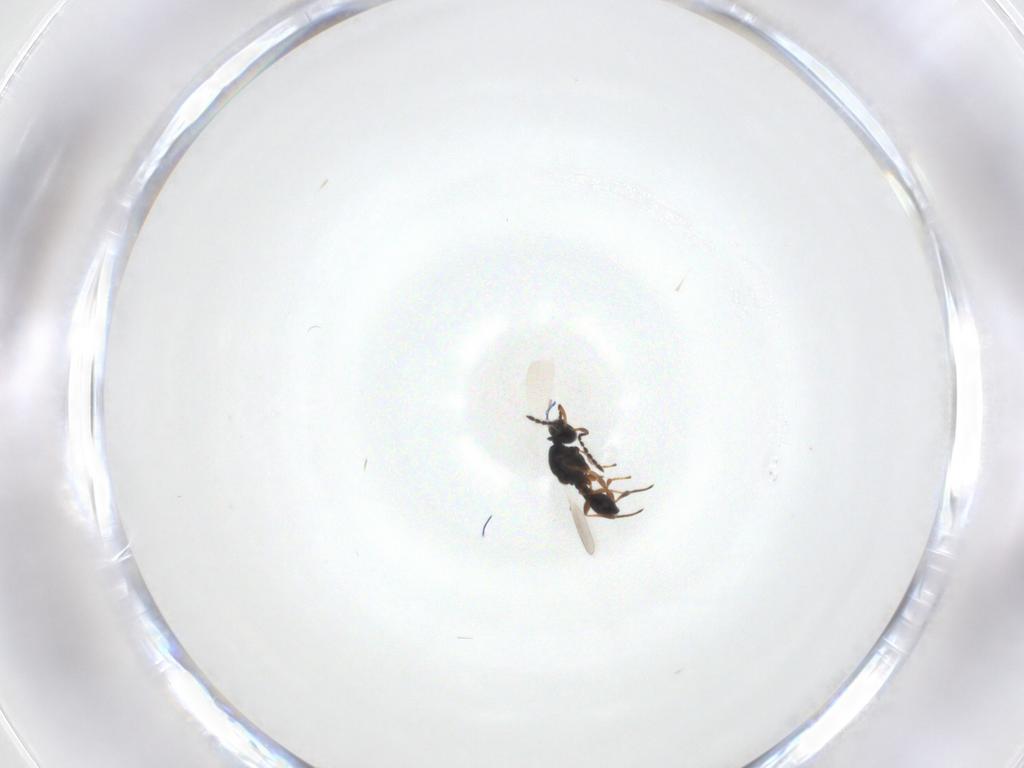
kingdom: Animalia
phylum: Arthropoda
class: Insecta
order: Hymenoptera
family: Platygastridae
